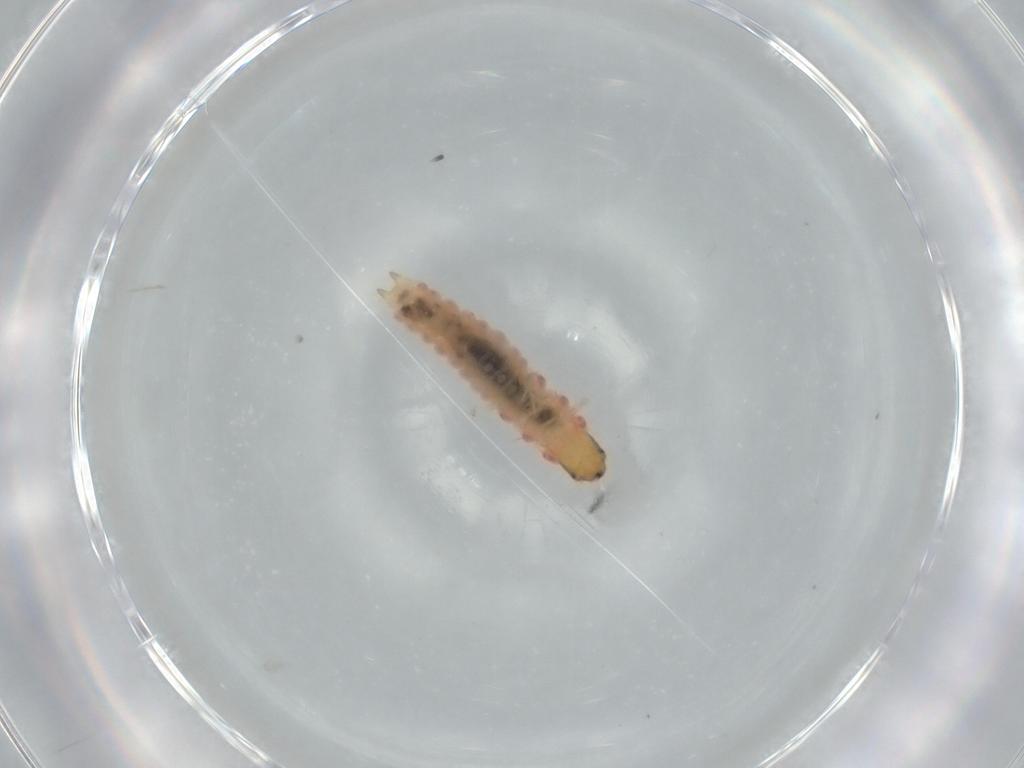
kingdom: Animalia
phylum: Arthropoda
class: Insecta
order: Coleoptera
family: Melyridae
